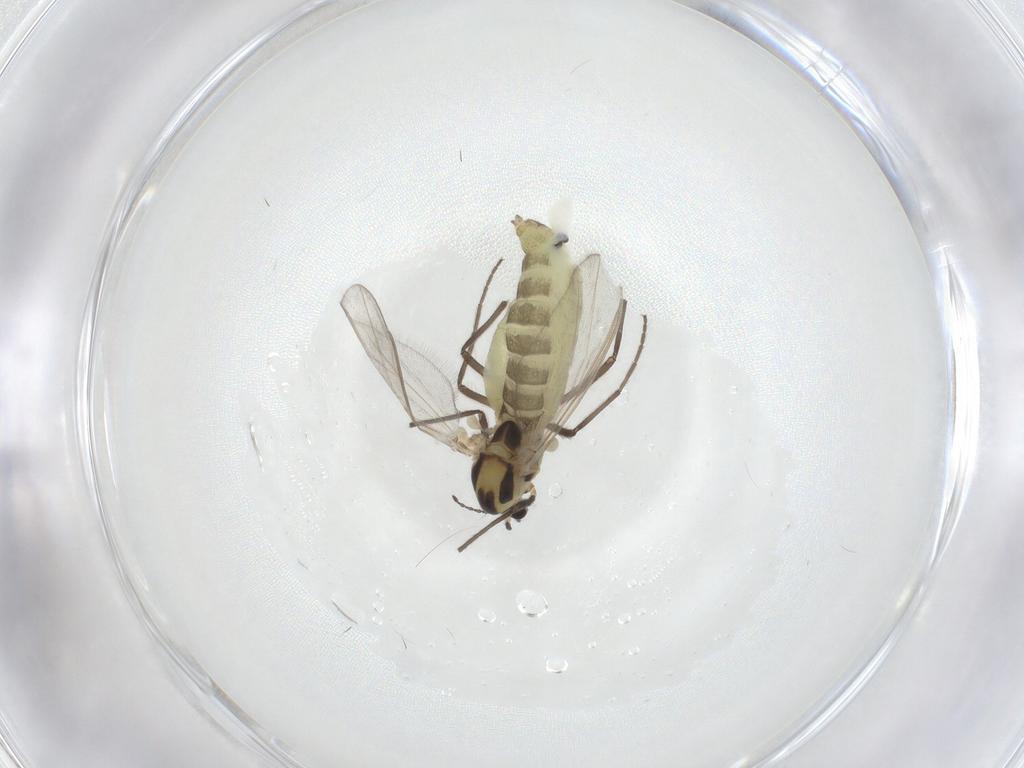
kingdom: Animalia
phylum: Arthropoda
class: Insecta
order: Diptera
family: Chironomidae
